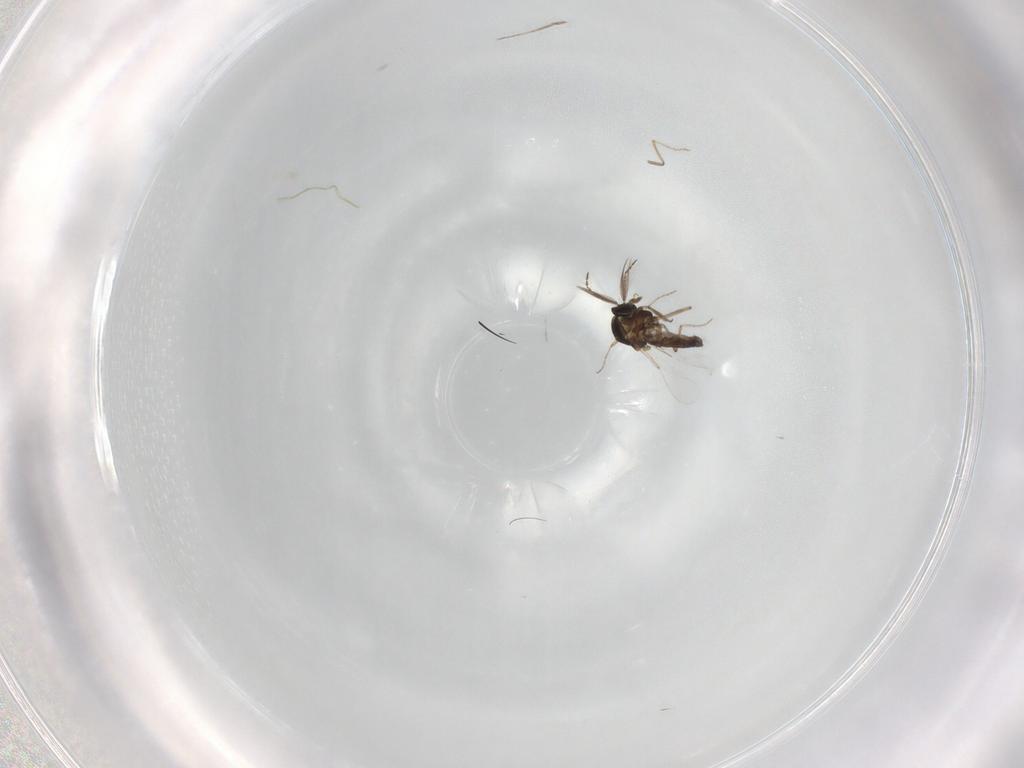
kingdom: Animalia
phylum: Arthropoda
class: Insecta
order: Diptera
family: Ceratopogonidae
